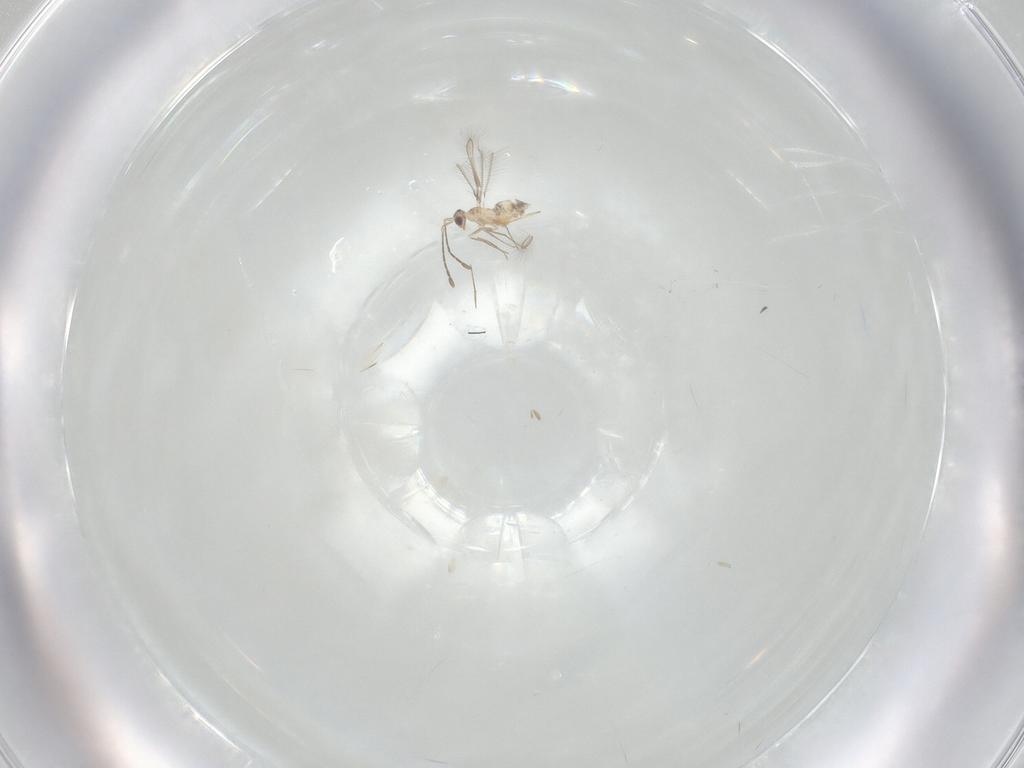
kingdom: Animalia
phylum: Arthropoda
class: Insecta
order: Hymenoptera
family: Mymaridae
